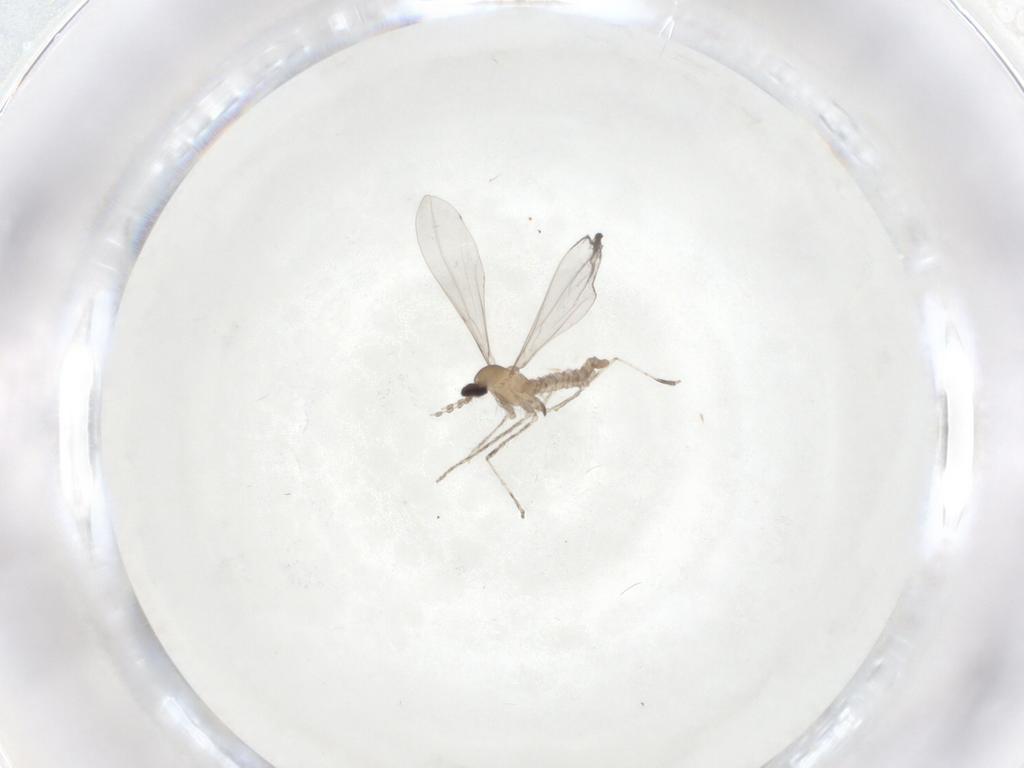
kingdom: Animalia
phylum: Arthropoda
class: Insecta
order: Diptera
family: Cecidomyiidae
